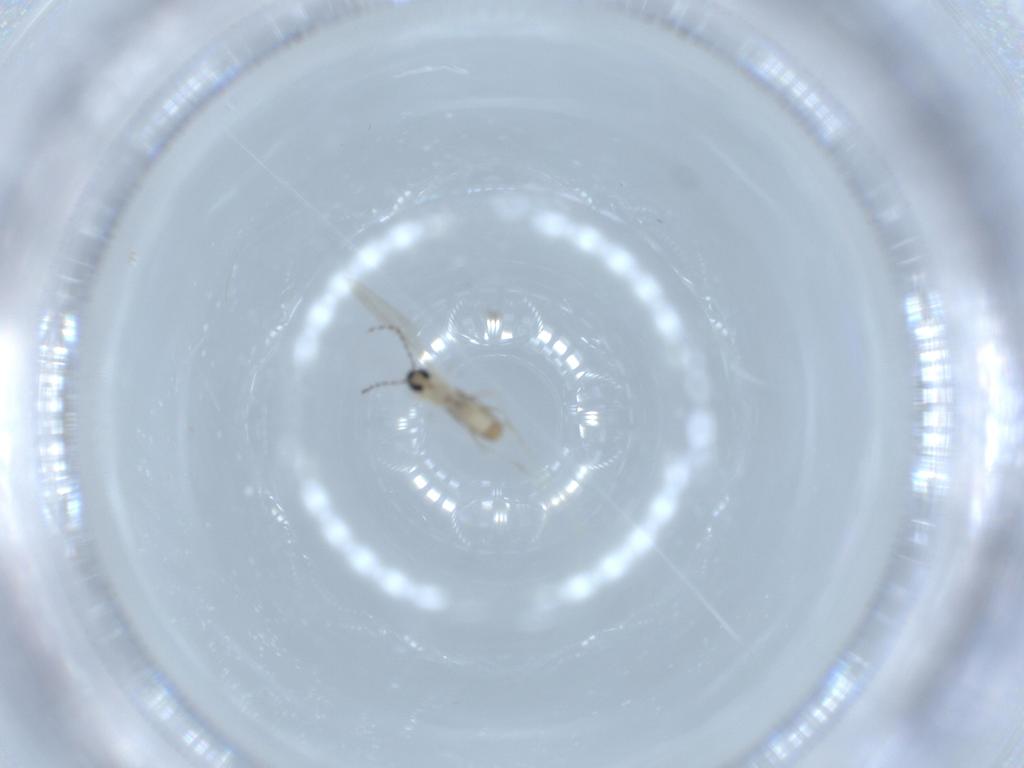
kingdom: Animalia
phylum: Arthropoda
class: Insecta
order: Diptera
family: Cecidomyiidae
